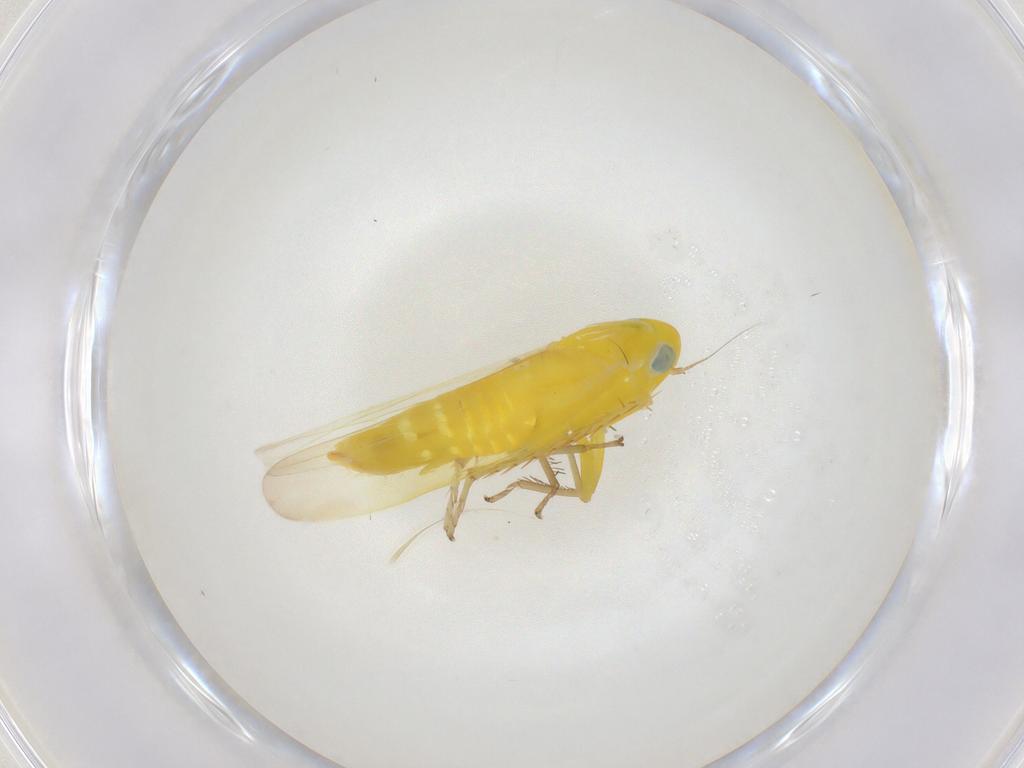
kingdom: Animalia
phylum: Arthropoda
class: Insecta
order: Hemiptera
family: Cicadellidae
